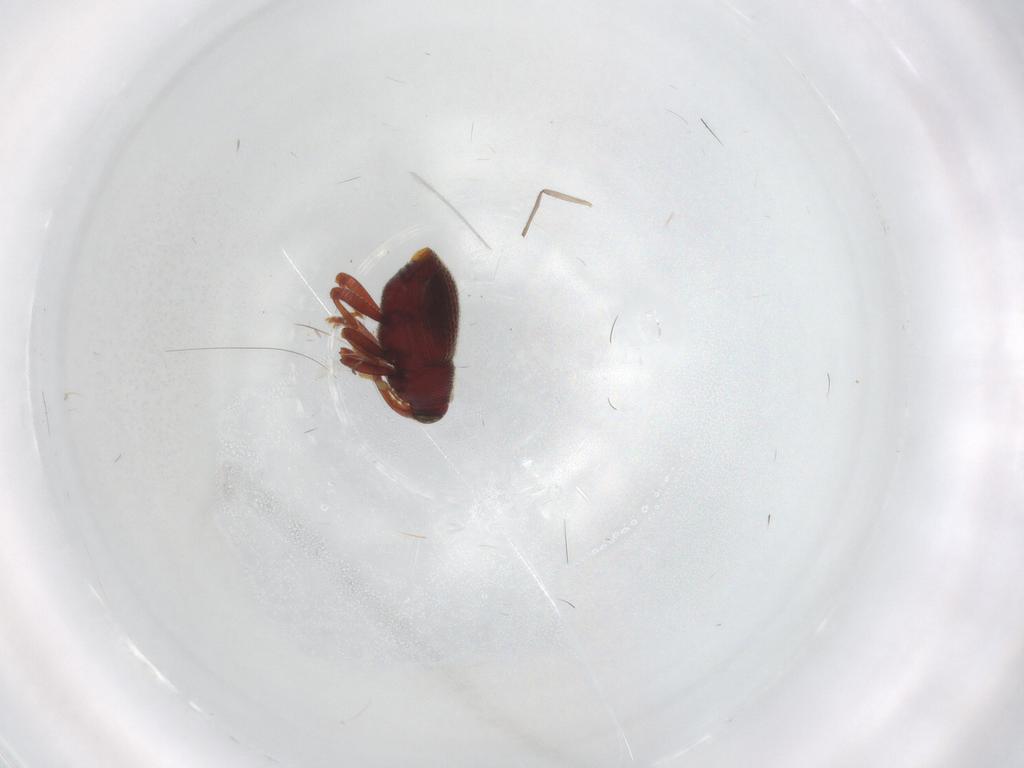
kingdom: Animalia
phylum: Arthropoda
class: Insecta
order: Coleoptera
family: Curculionidae
